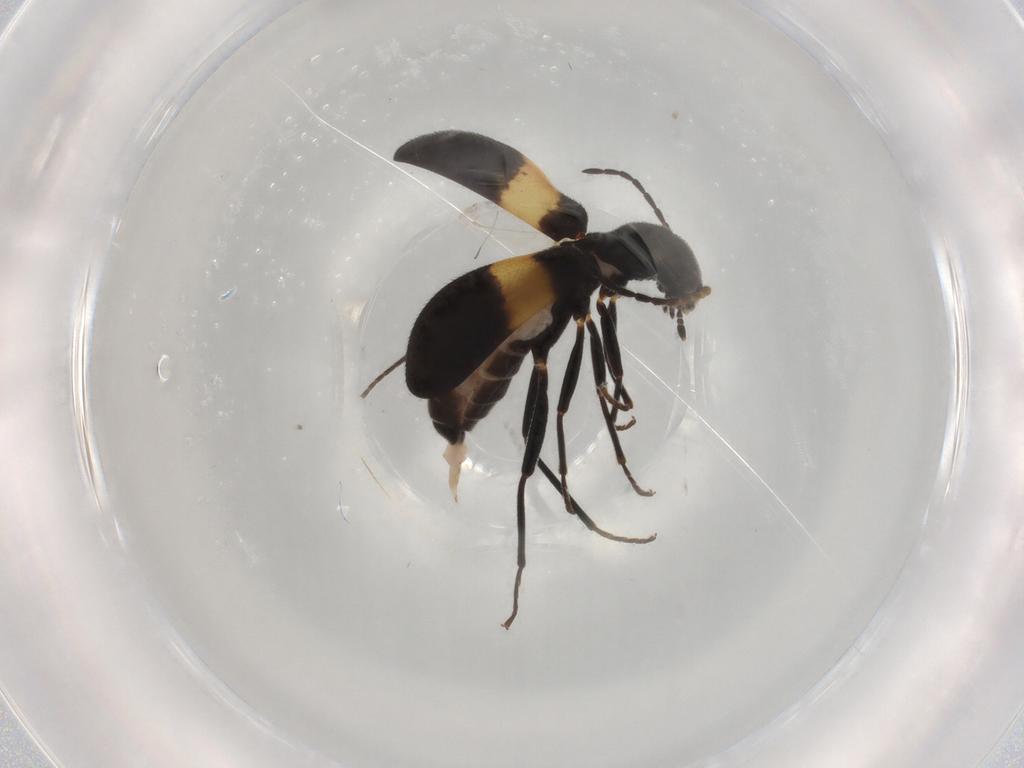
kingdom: Animalia
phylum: Arthropoda
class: Insecta
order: Coleoptera
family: Melyridae
